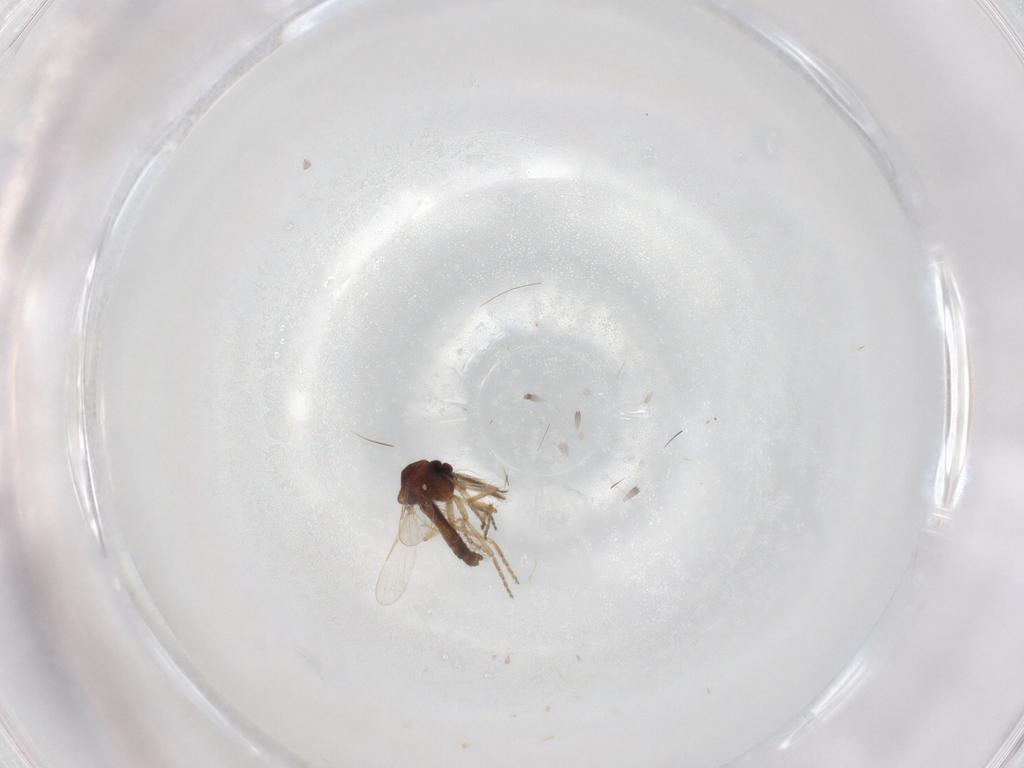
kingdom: Animalia
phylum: Arthropoda
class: Insecta
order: Diptera
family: Ceratopogonidae
